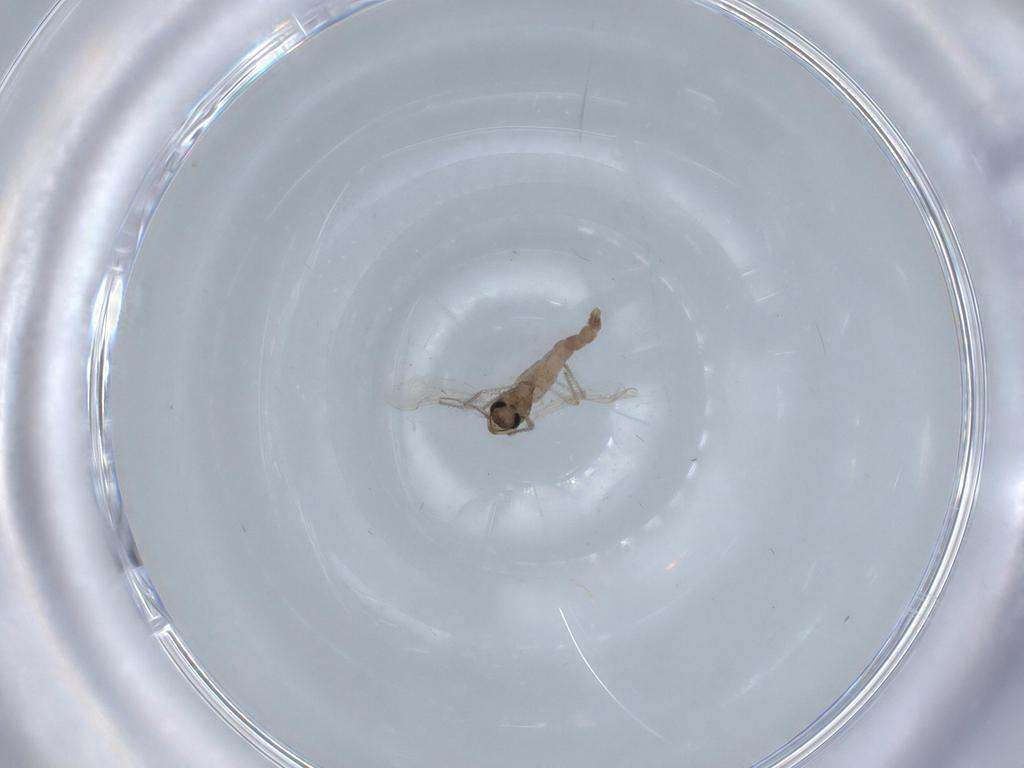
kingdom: Animalia
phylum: Arthropoda
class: Insecta
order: Diptera
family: Chironomidae
